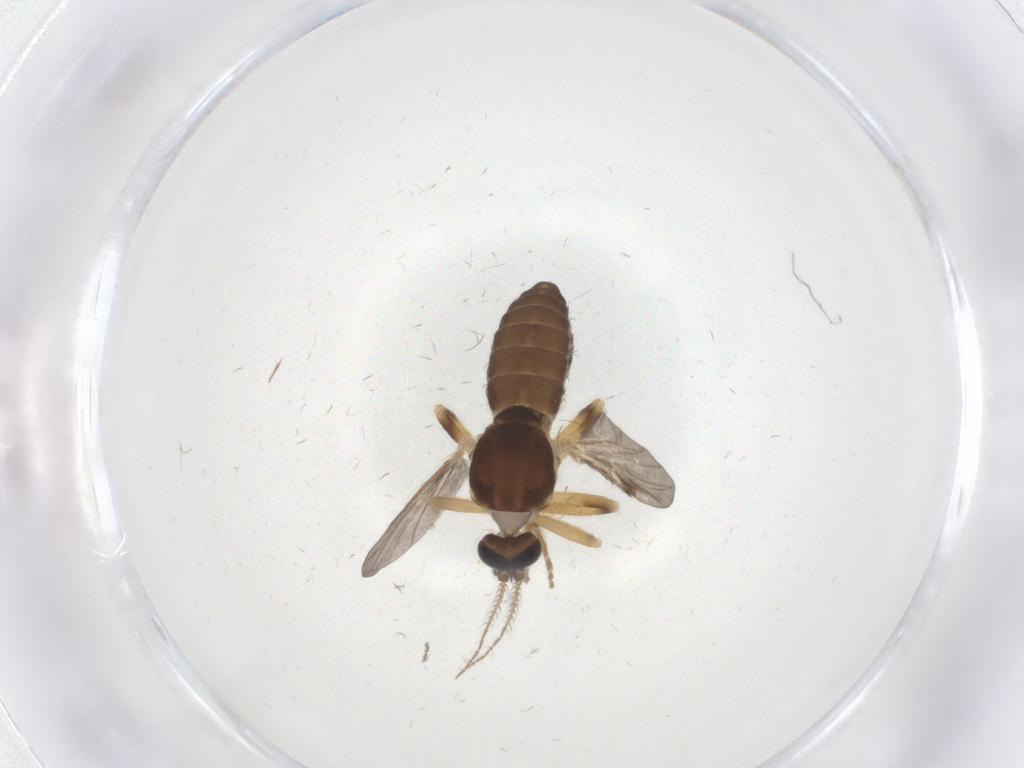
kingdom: Animalia
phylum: Arthropoda
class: Insecta
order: Diptera
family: Ceratopogonidae
